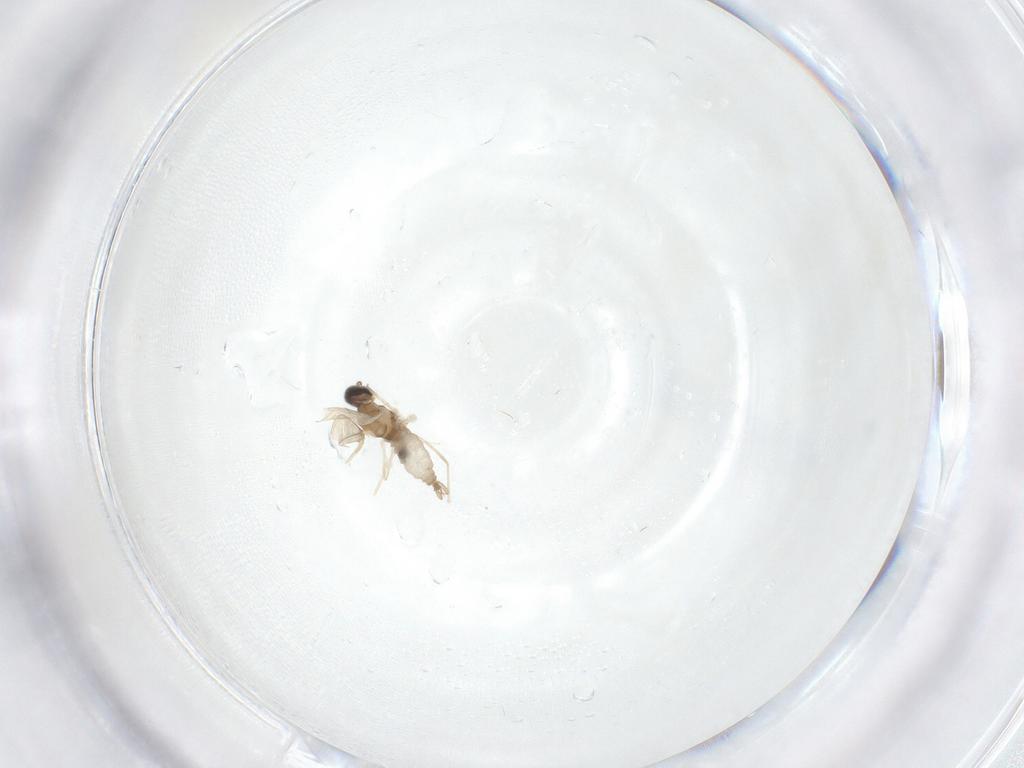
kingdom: Animalia
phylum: Arthropoda
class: Insecta
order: Diptera
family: Cecidomyiidae
